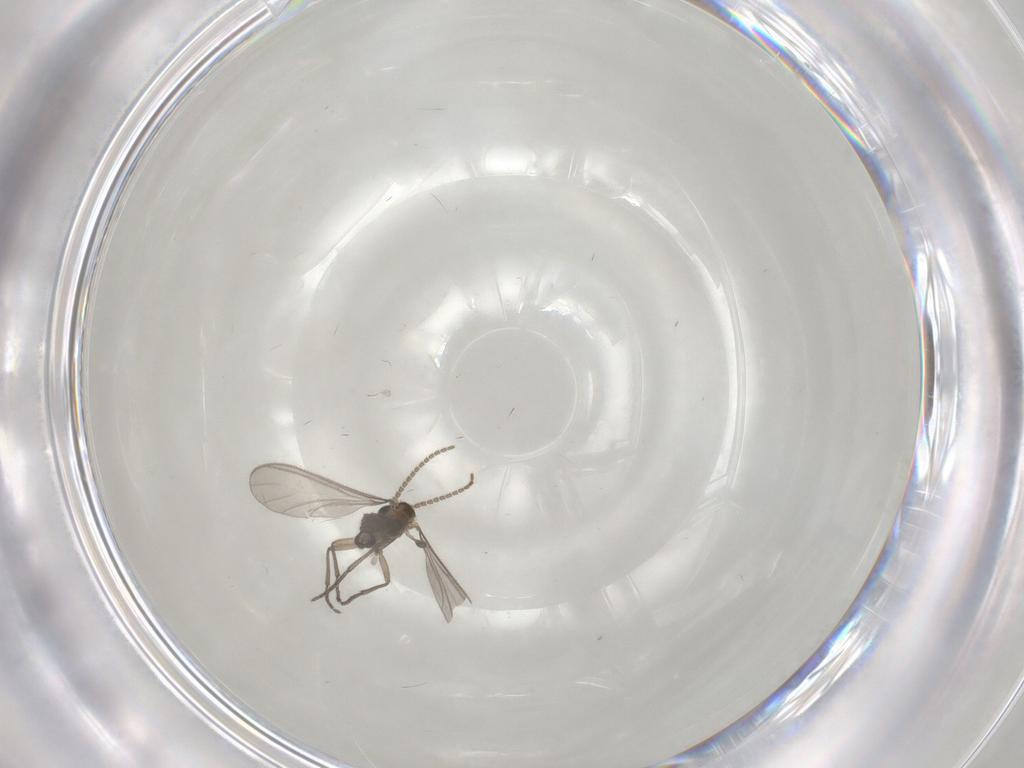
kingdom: Animalia
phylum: Arthropoda
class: Insecta
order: Diptera
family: Sciaridae
